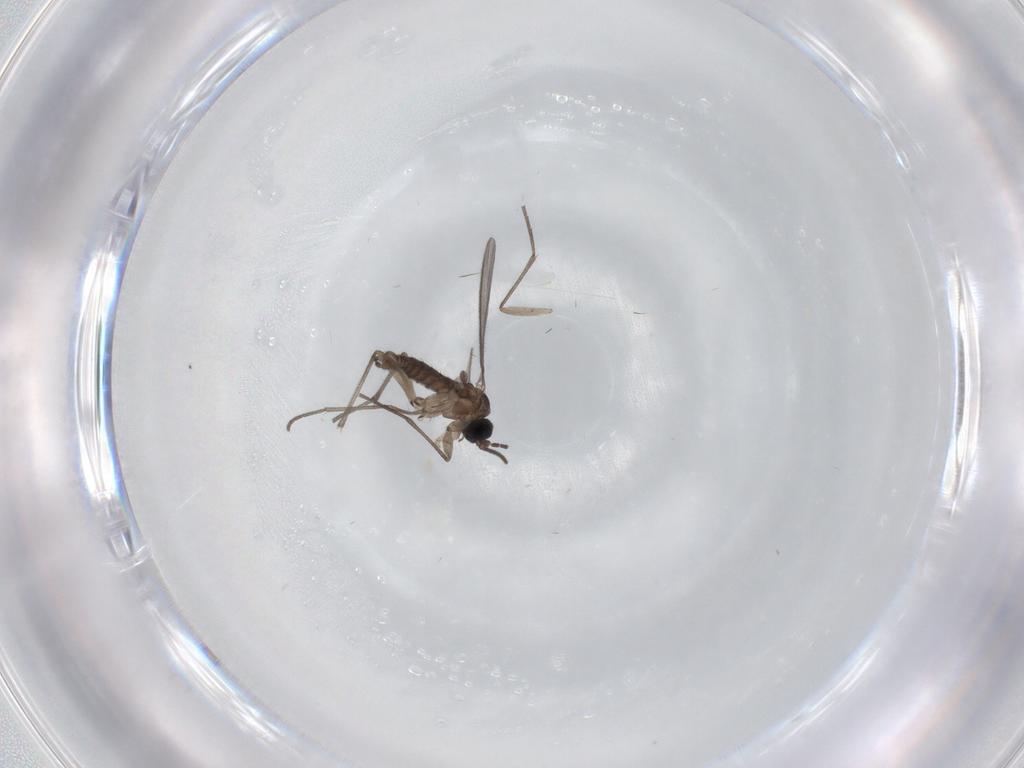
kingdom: Animalia
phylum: Arthropoda
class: Insecta
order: Diptera
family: Sciaridae
